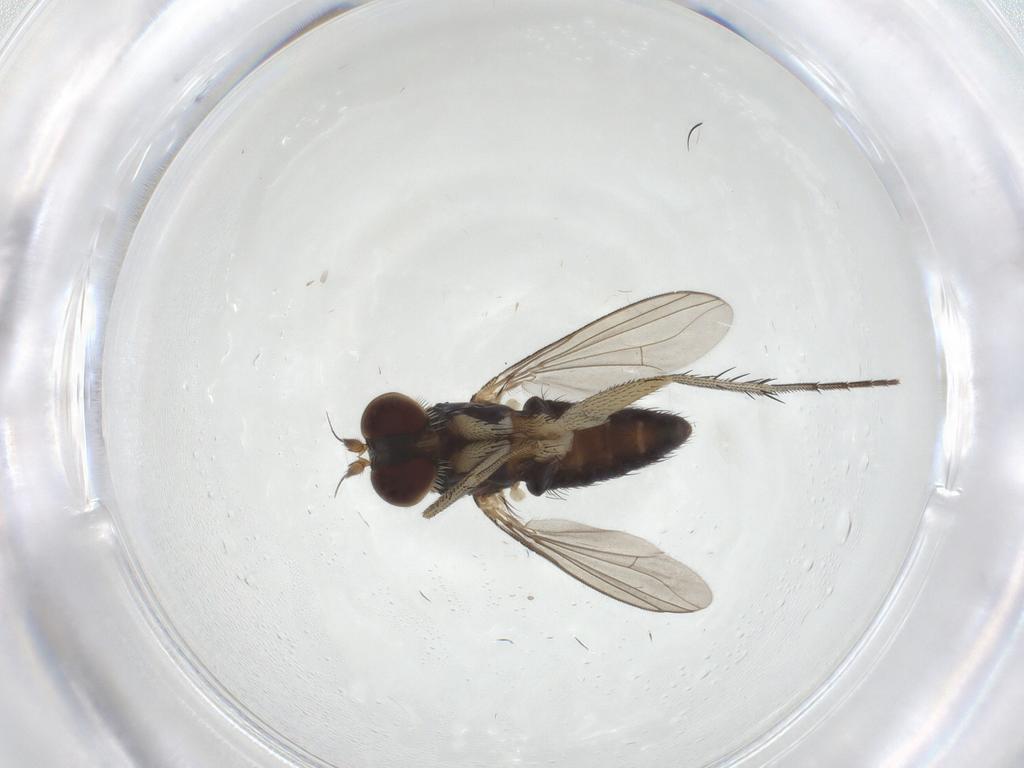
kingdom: Animalia
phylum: Arthropoda
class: Insecta
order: Diptera
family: Dolichopodidae
